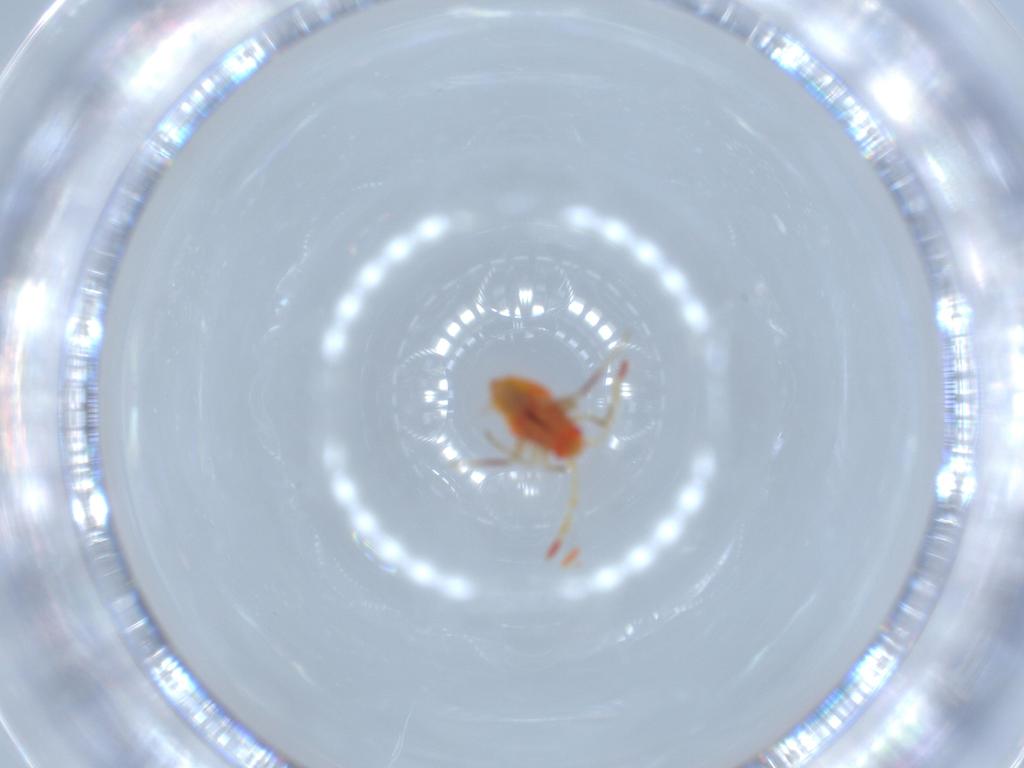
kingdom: Animalia
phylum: Arthropoda
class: Insecta
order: Hemiptera
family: Miridae
